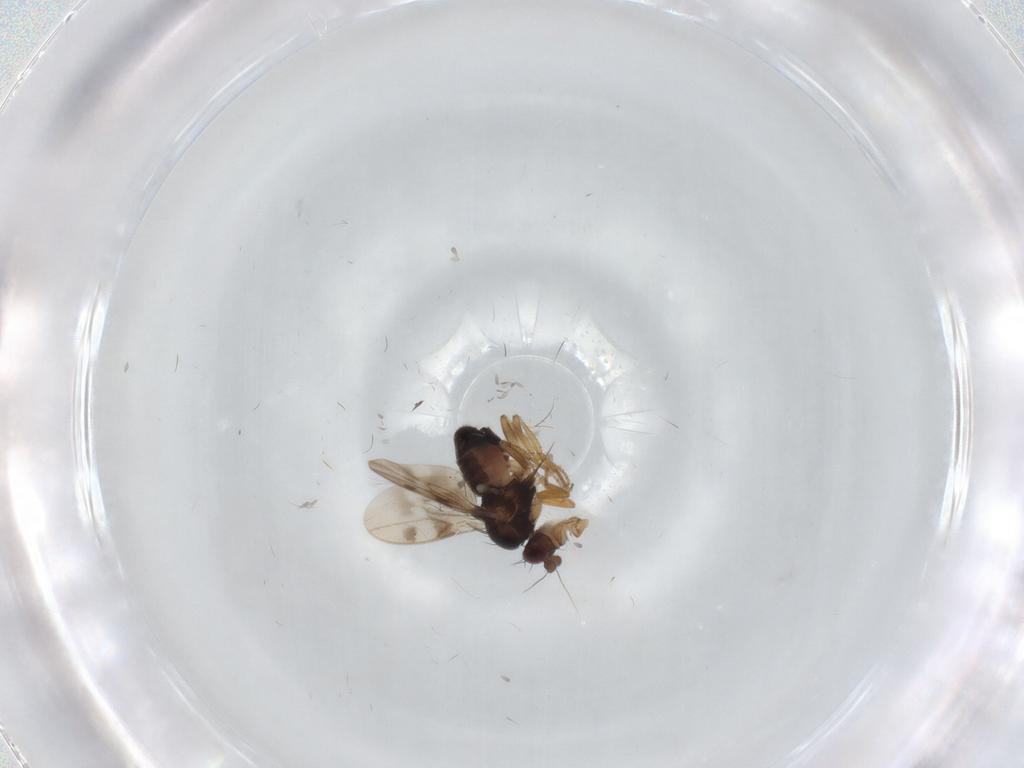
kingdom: Animalia
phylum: Arthropoda
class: Insecta
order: Diptera
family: Sphaeroceridae
